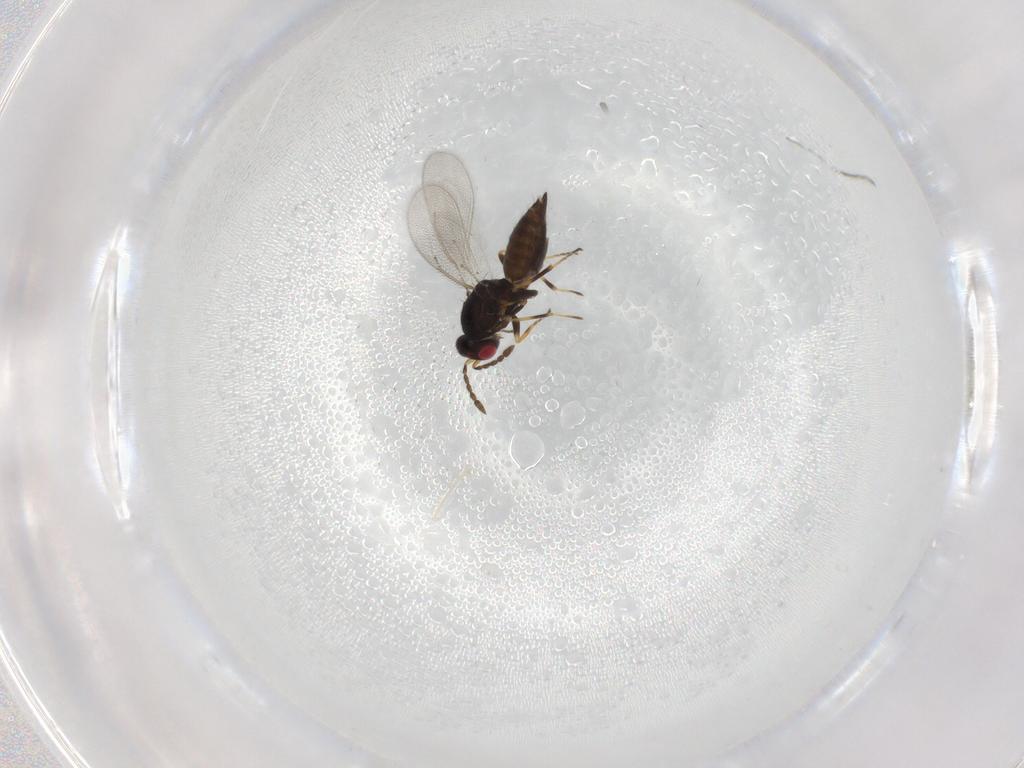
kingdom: Animalia
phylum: Arthropoda
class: Insecta
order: Hymenoptera
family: Eulophidae
